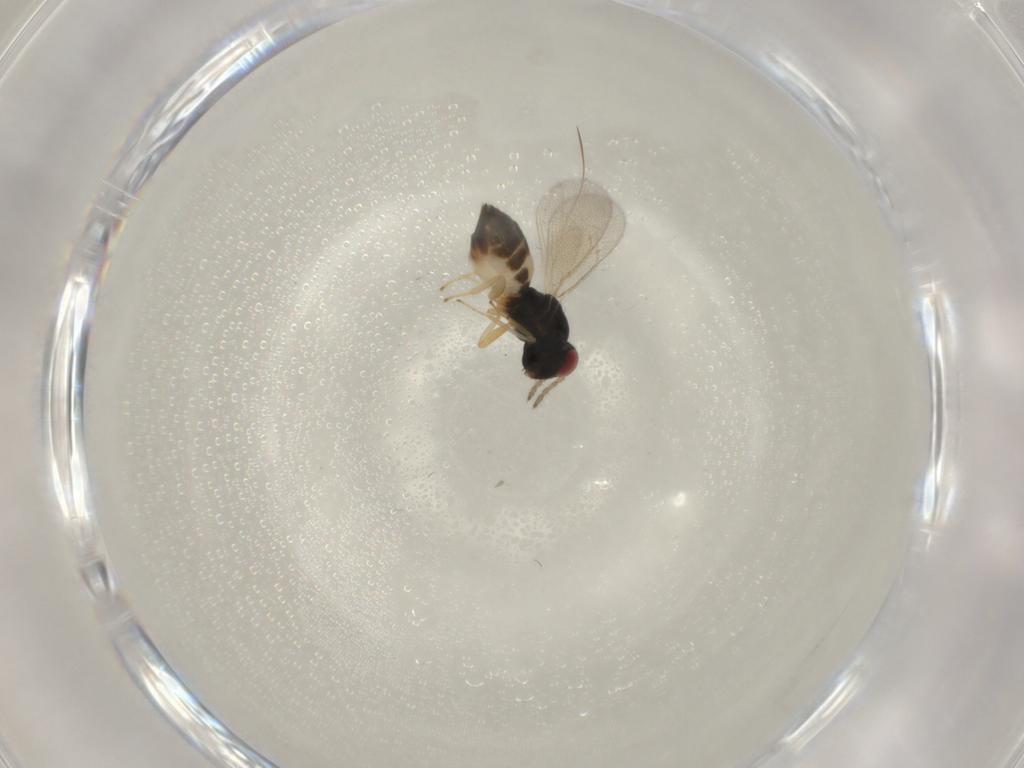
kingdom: Animalia
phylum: Arthropoda
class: Insecta
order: Hymenoptera
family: Eulophidae
